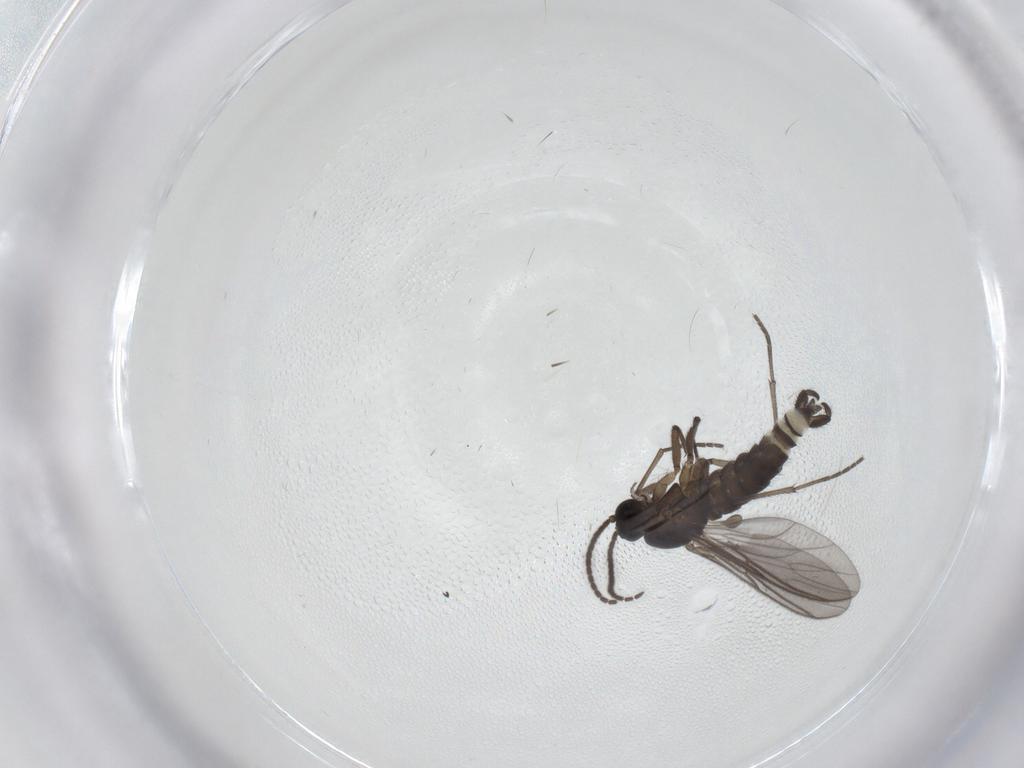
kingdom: Animalia
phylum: Arthropoda
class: Insecta
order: Diptera
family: Sciaridae
